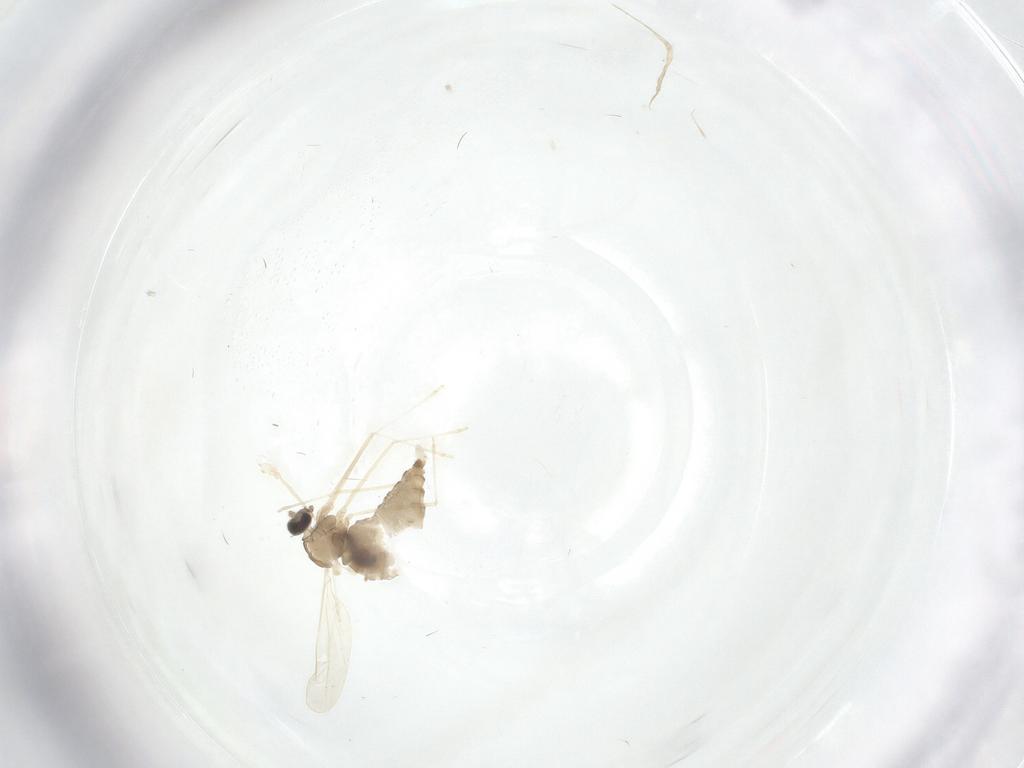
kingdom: Animalia
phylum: Arthropoda
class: Insecta
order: Diptera
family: Cecidomyiidae
